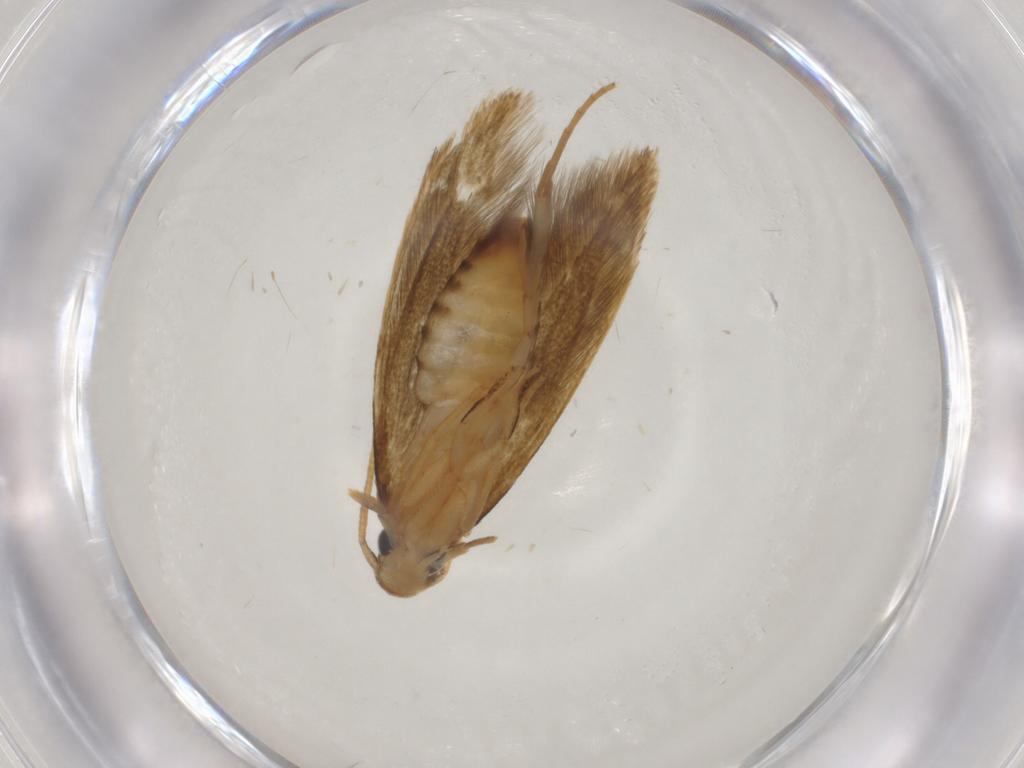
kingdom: Animalia
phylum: Arthropoda
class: Insecta
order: Lepidoptera
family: Tineidae
